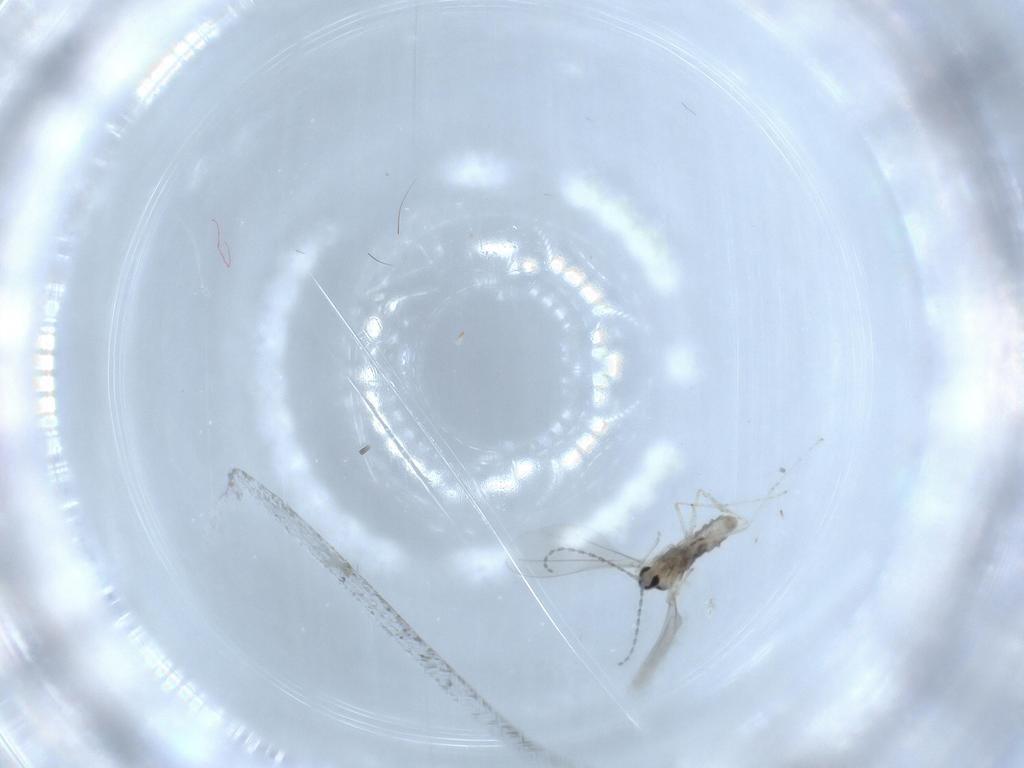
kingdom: Animalia
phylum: Arthropoda
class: Insecta
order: Diptera
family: Cecidomyiidae
